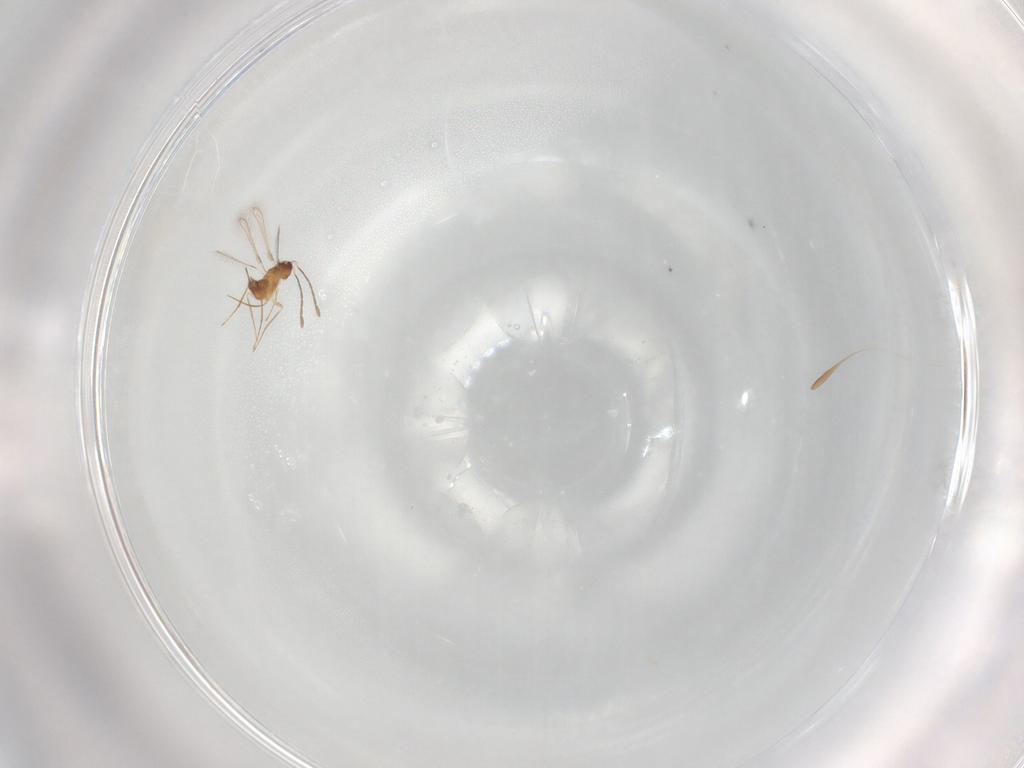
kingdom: Animalia
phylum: Arthropoda
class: Insecta
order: Hymenoptera
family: Mymaridae
